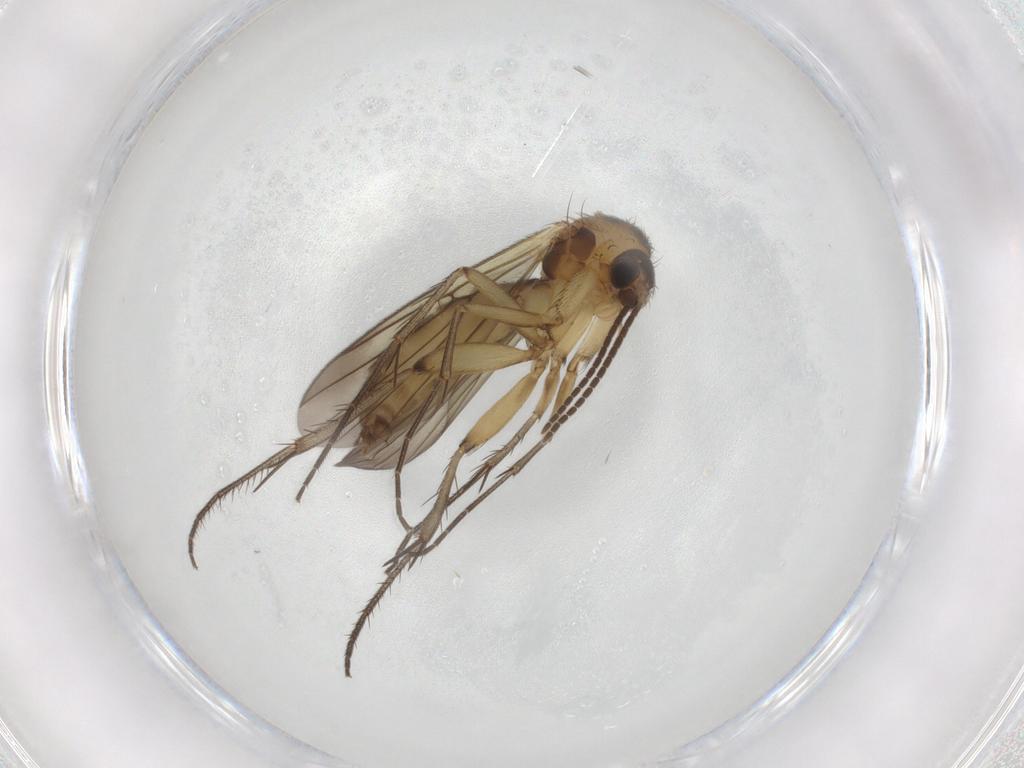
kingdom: Animalia
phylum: Arthropoda
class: Insecta
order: Diptera
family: Mycetophilidae
